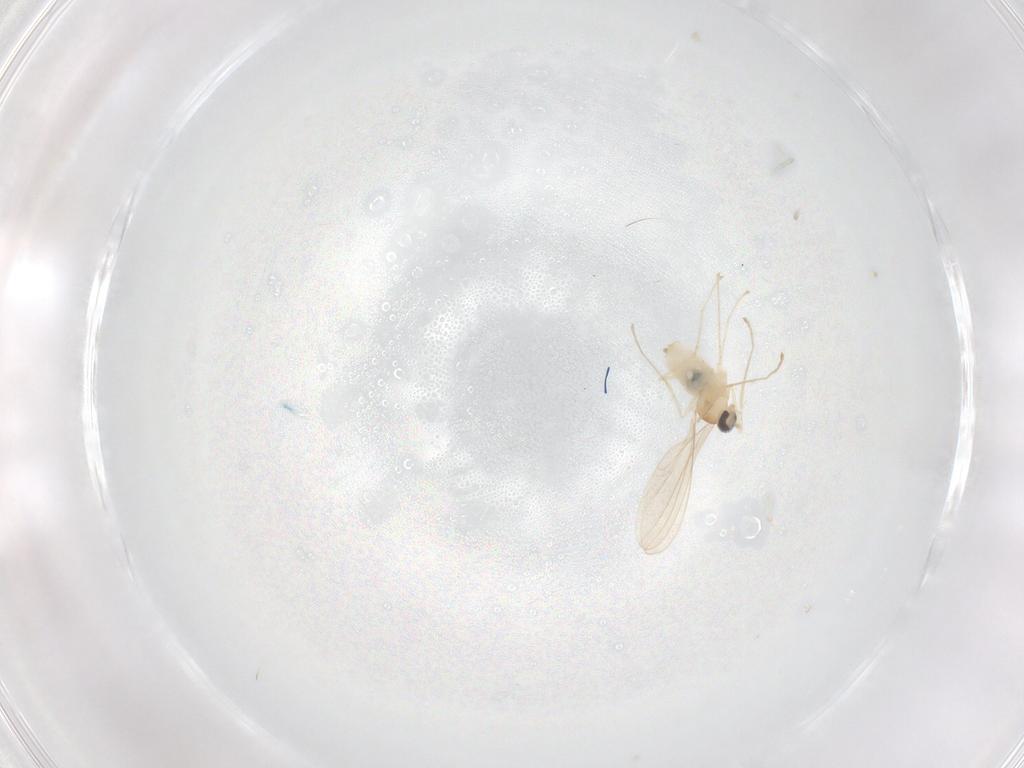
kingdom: Animalia
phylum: Arthropoda
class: Insecta
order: Diptera
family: Cecidomyiidae
